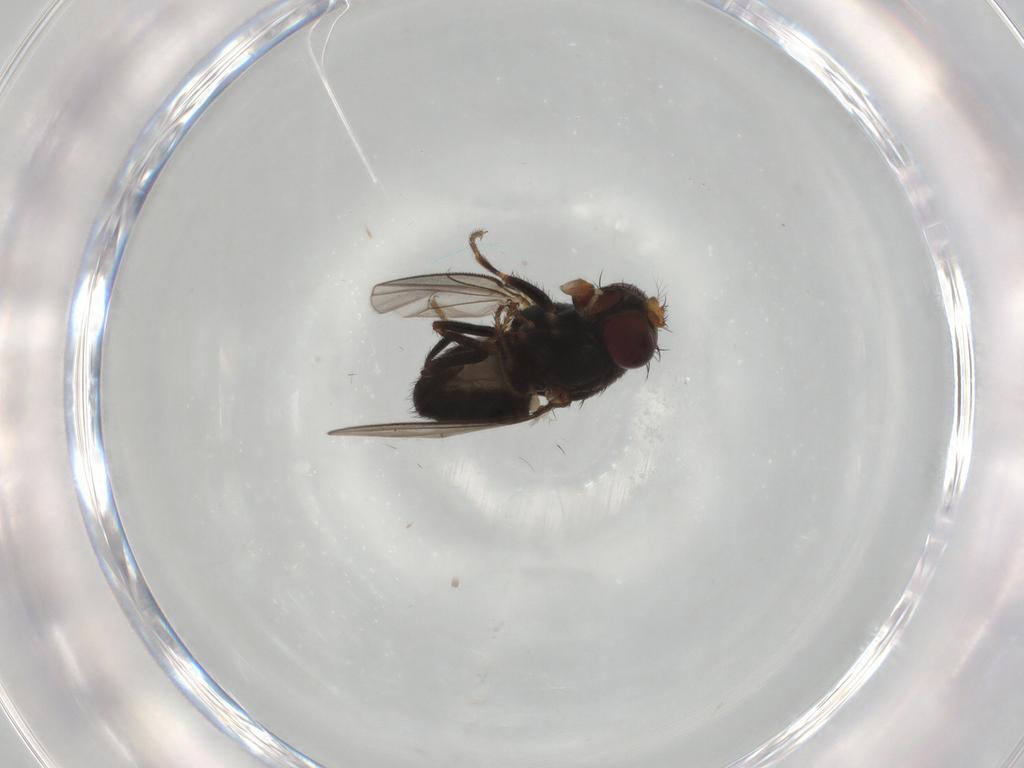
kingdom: Animalia
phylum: Arthropoda
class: Insecta
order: Diptera
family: Ephydridae
